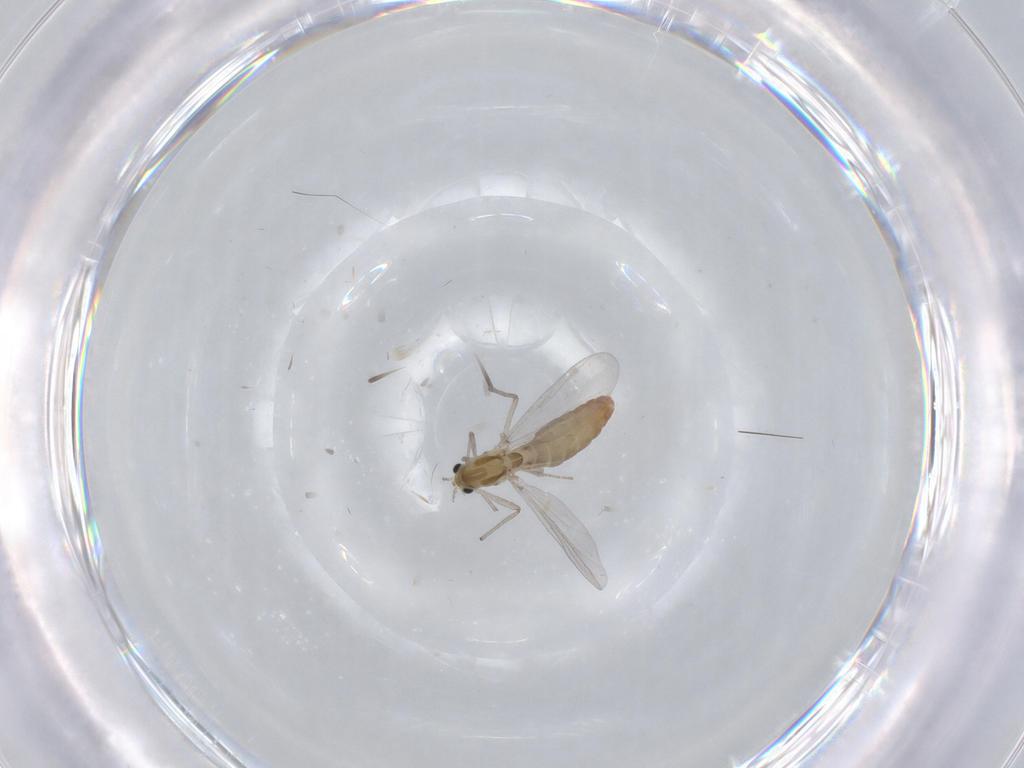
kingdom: Animalia
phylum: Arthropoda
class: Insecta
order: Diptera
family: Chironomidae
